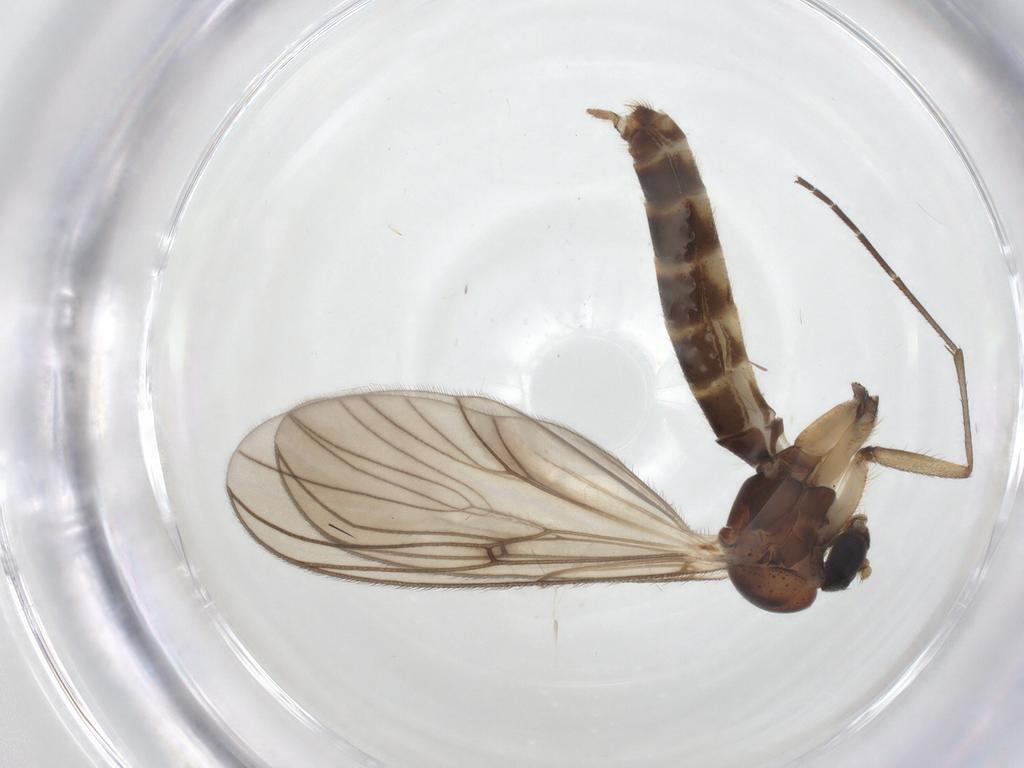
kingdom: Animalia
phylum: Arthropoda
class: Insecta
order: Diptera
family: Mycetophilidae
